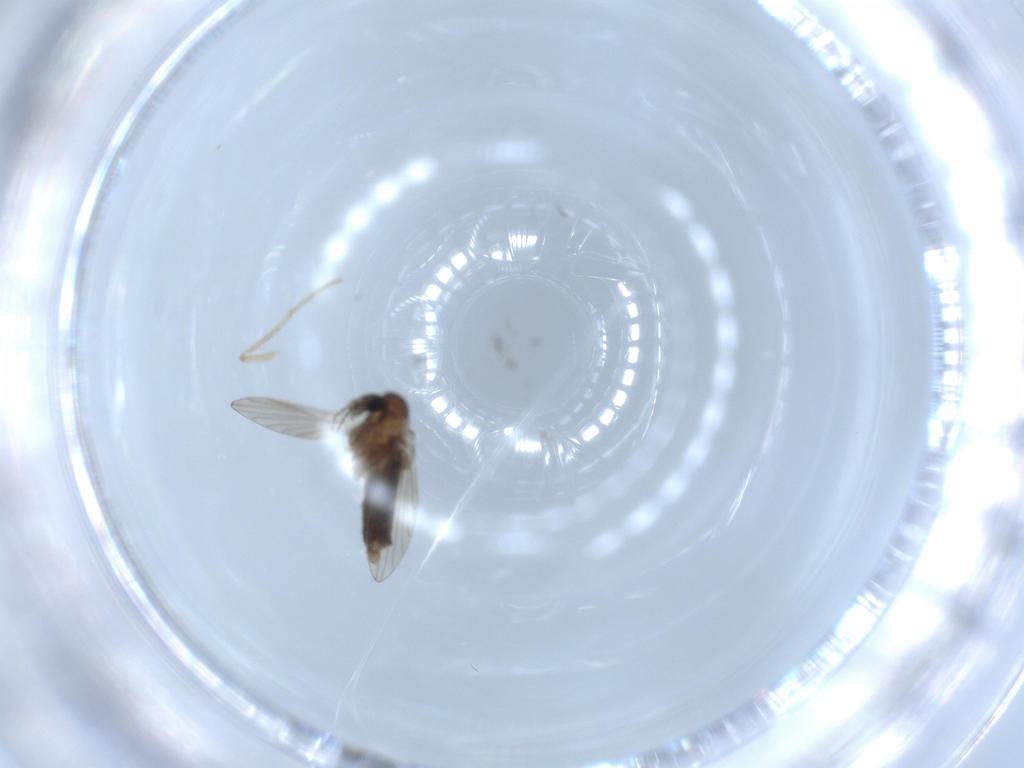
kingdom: Animalia
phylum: Arthropoda
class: Insecta
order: Diptera
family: Psychodidae
